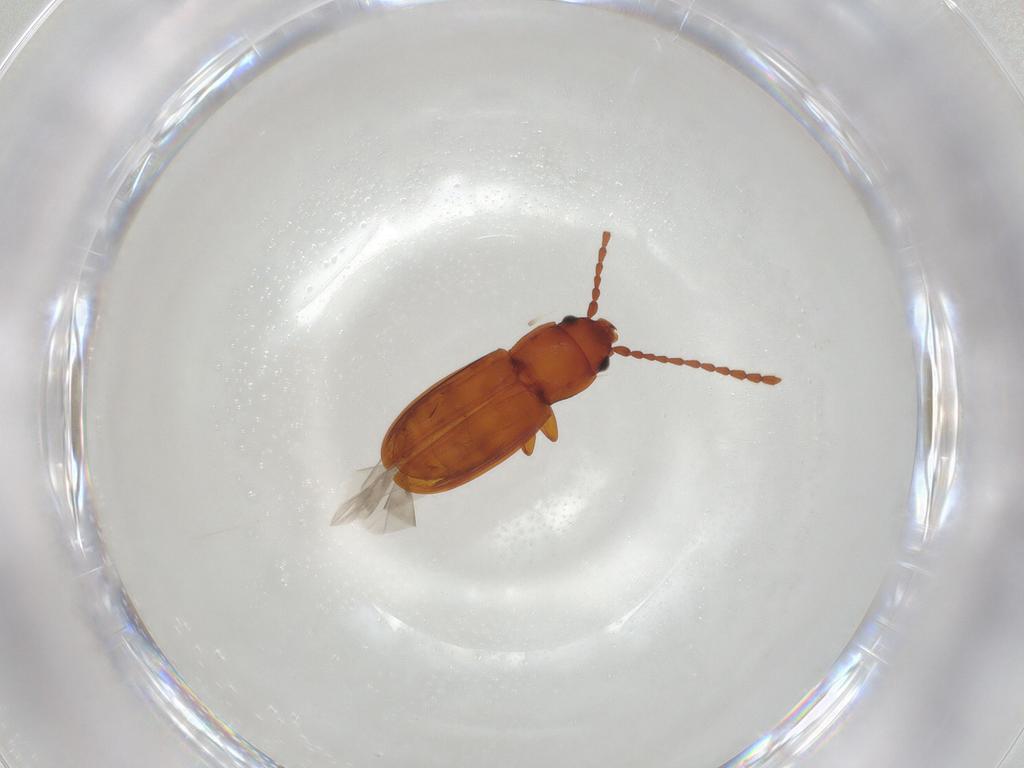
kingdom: Animalia
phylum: Arthropoda
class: Insecta
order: Coleoptera
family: Laemophloeidae
